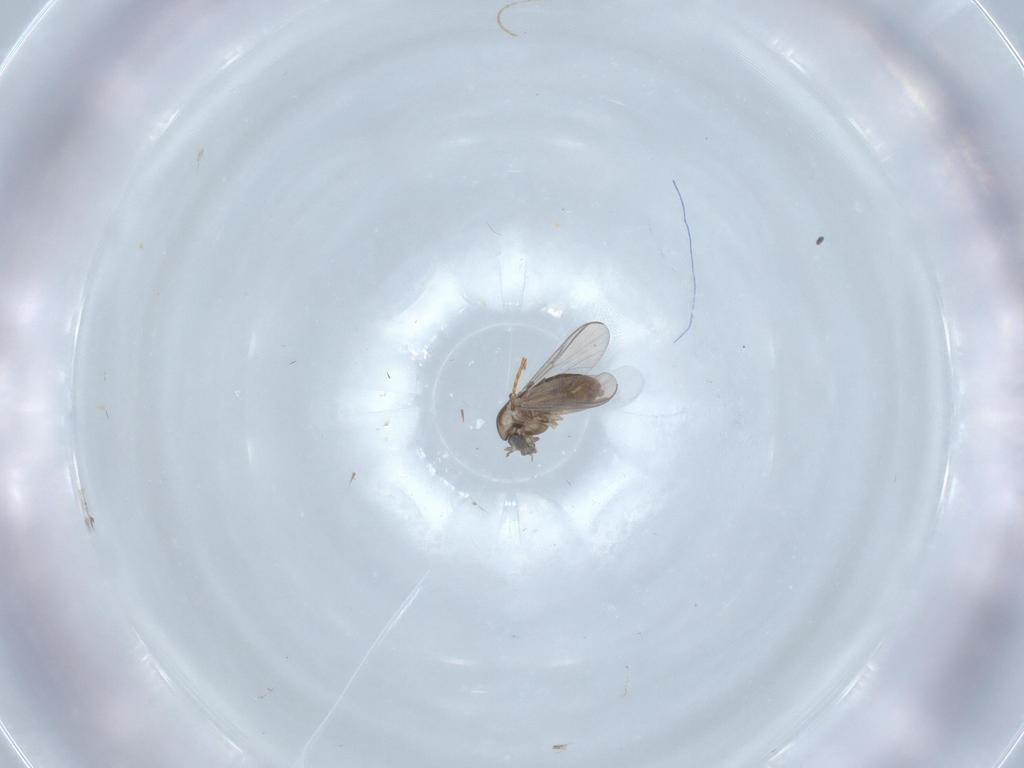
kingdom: Animalia
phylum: Arthropoda
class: Insecta
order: Diptera
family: Chironomidae
